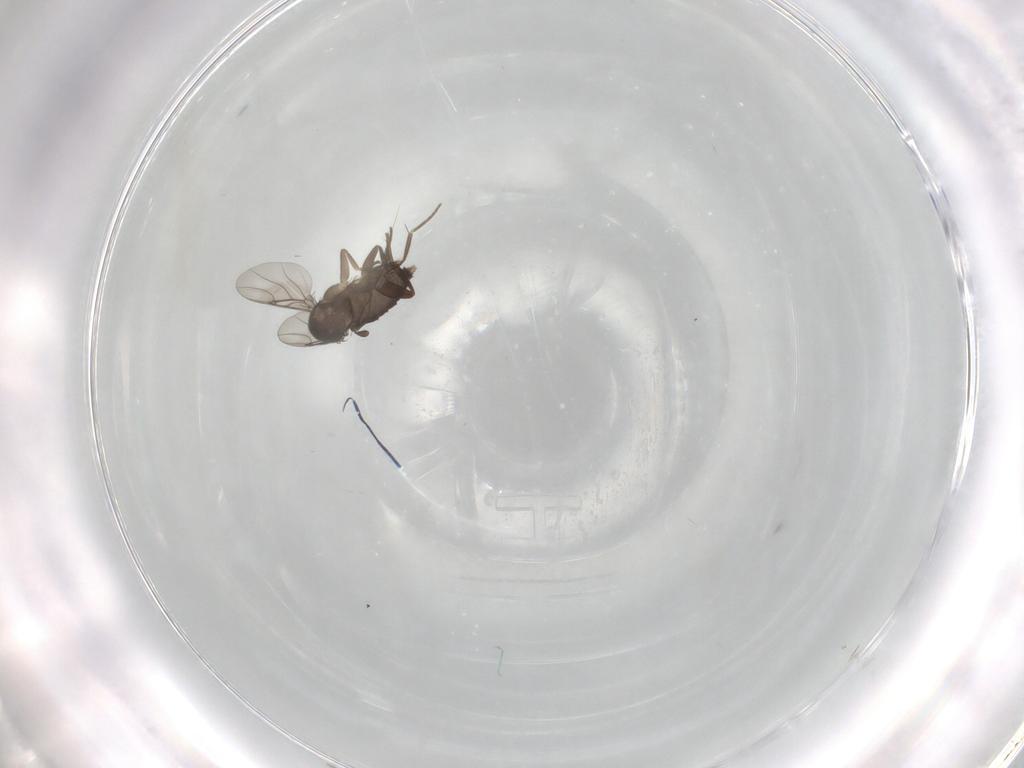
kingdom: Animalia
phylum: Arthropoda
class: Insecta
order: Diptera
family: Phoridae
